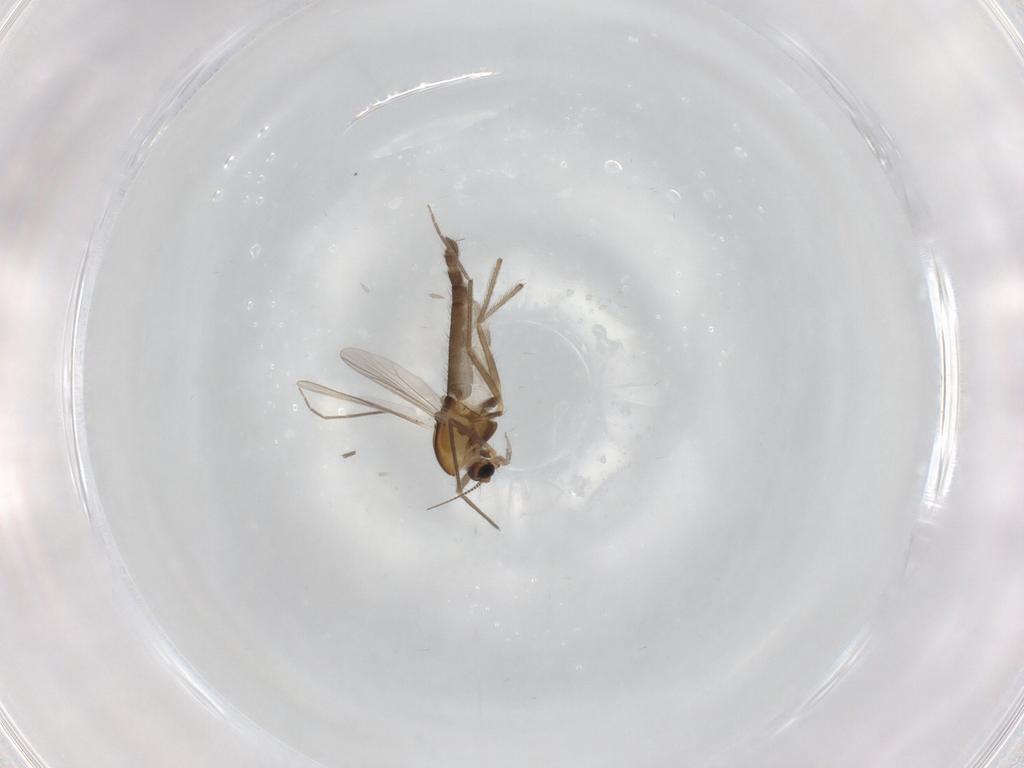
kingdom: Animalia
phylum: Arthropoda
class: Insecta
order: Diptera
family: Chironomidae
